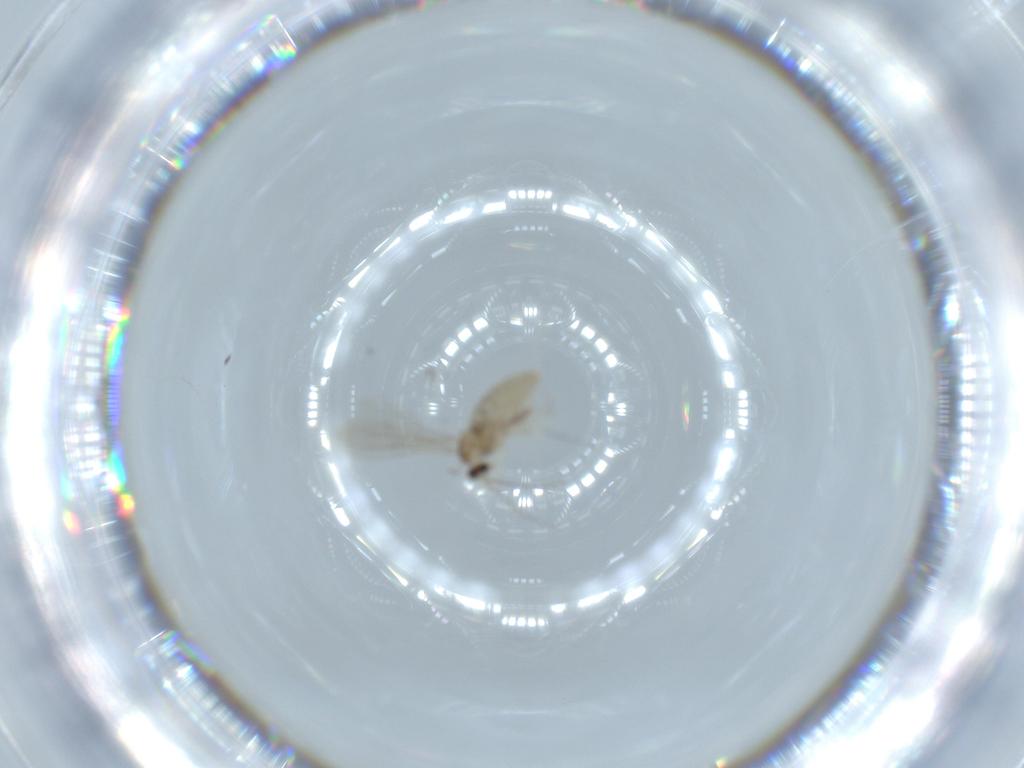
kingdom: Animalia
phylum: Arthropoda
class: Insecta
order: Diptera
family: Cecidomyiidae
